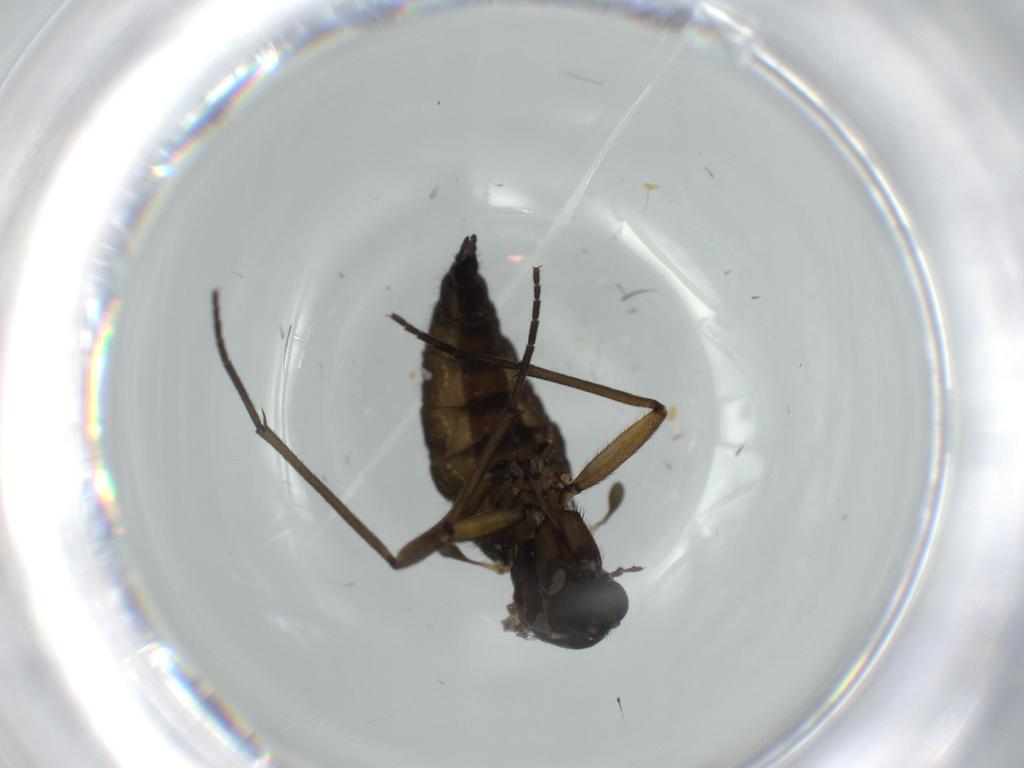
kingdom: Animalia
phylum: Arthropoda
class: Insecta
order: Diptera
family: Sciaridae
